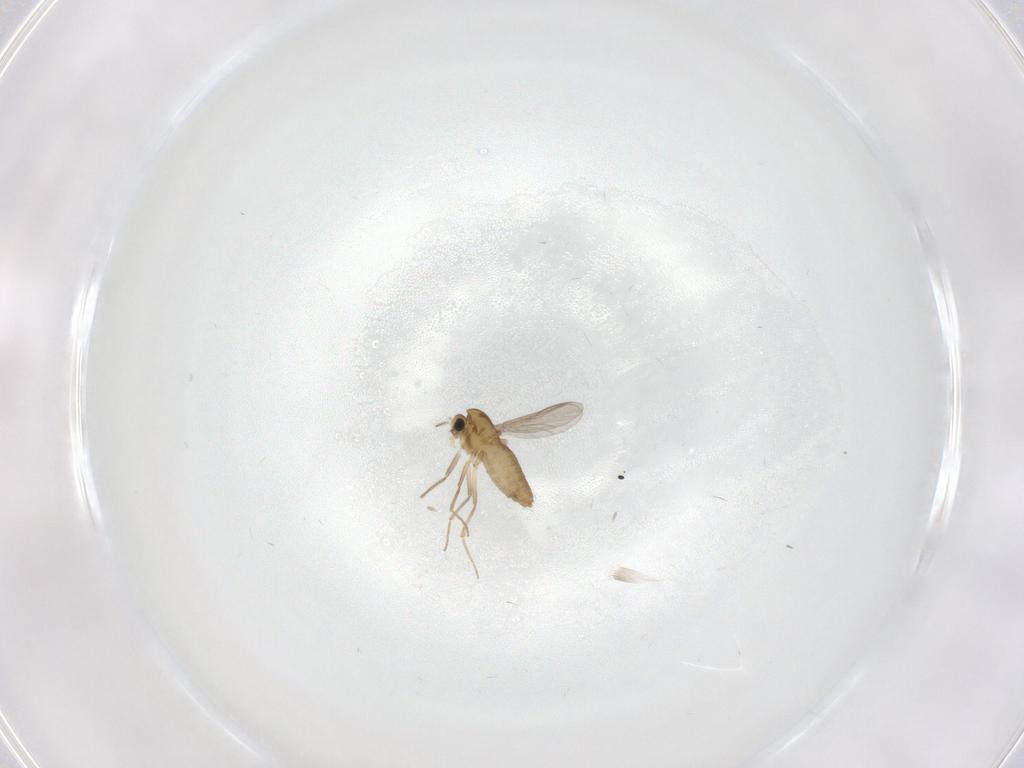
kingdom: Animalia
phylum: Arthropoda
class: Insecta
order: Diptera
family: Chironomidae
